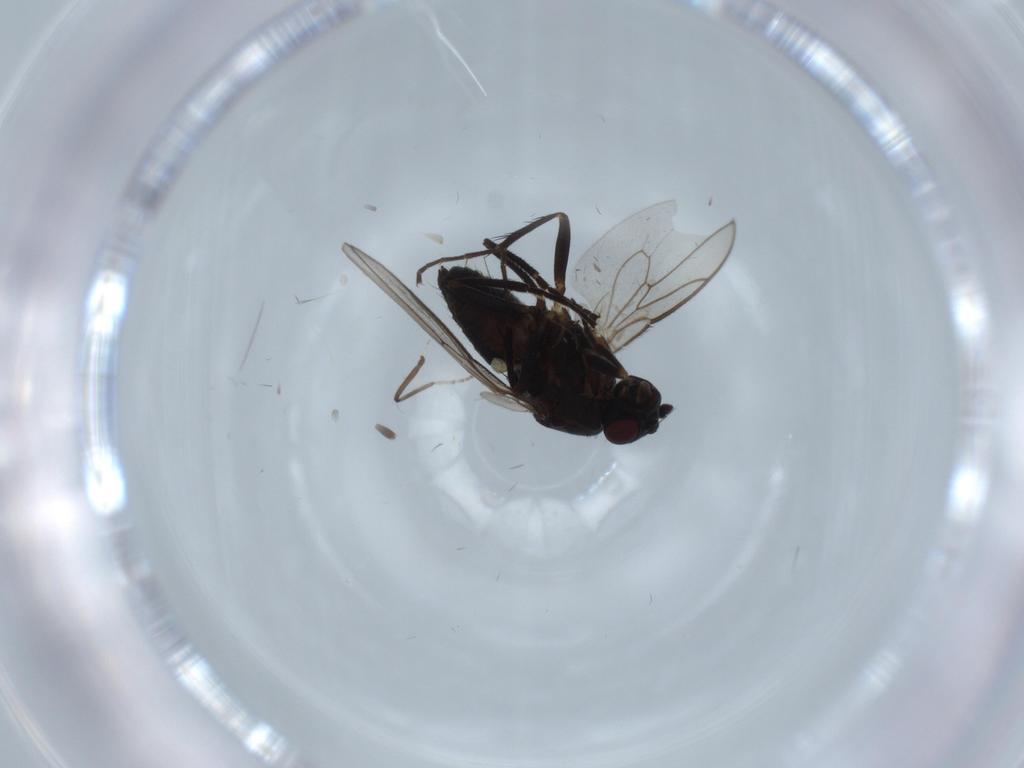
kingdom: Animalia
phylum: Arthropoda
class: Insecta
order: Diptera
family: Sphaeroceridae
